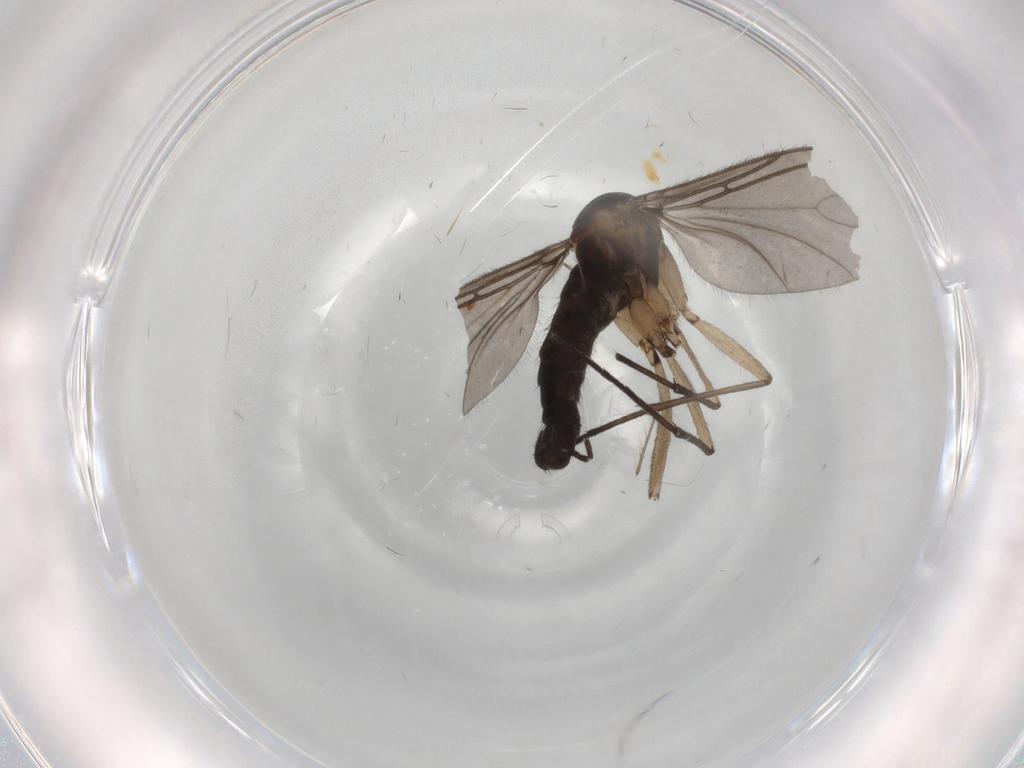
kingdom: Animalia
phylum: Arthropoda
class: Insecta
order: Diptera
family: Sciaridae
